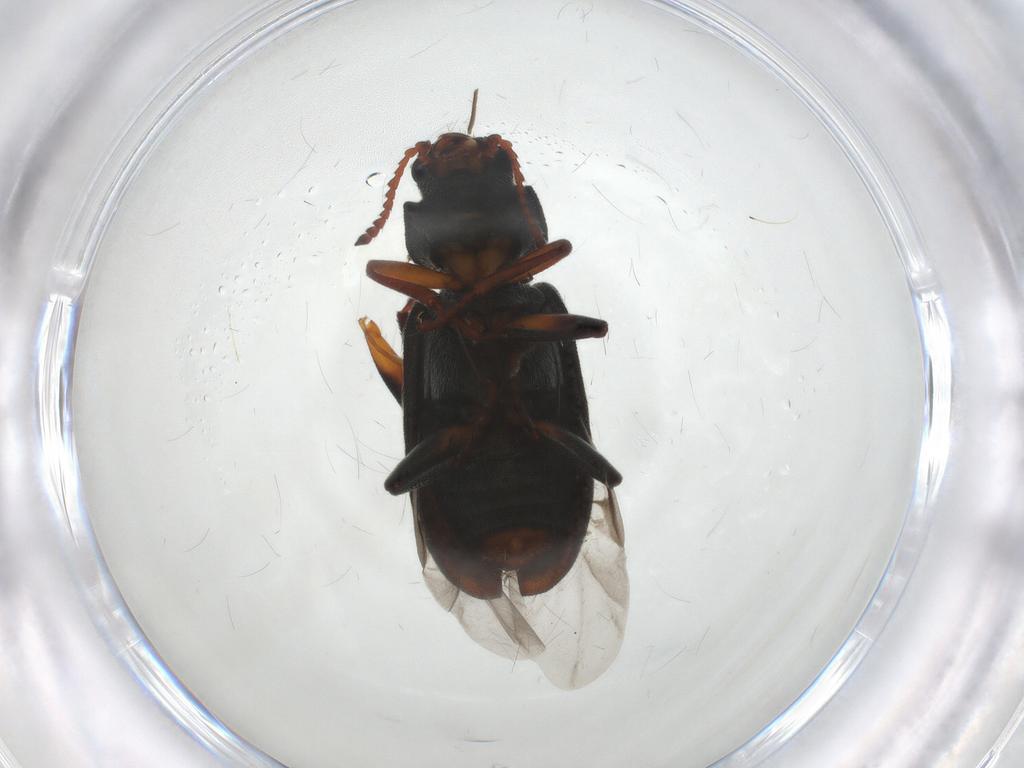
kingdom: Animalia
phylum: Arthropoda
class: Insecta
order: Coleoptera
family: Melyridae
